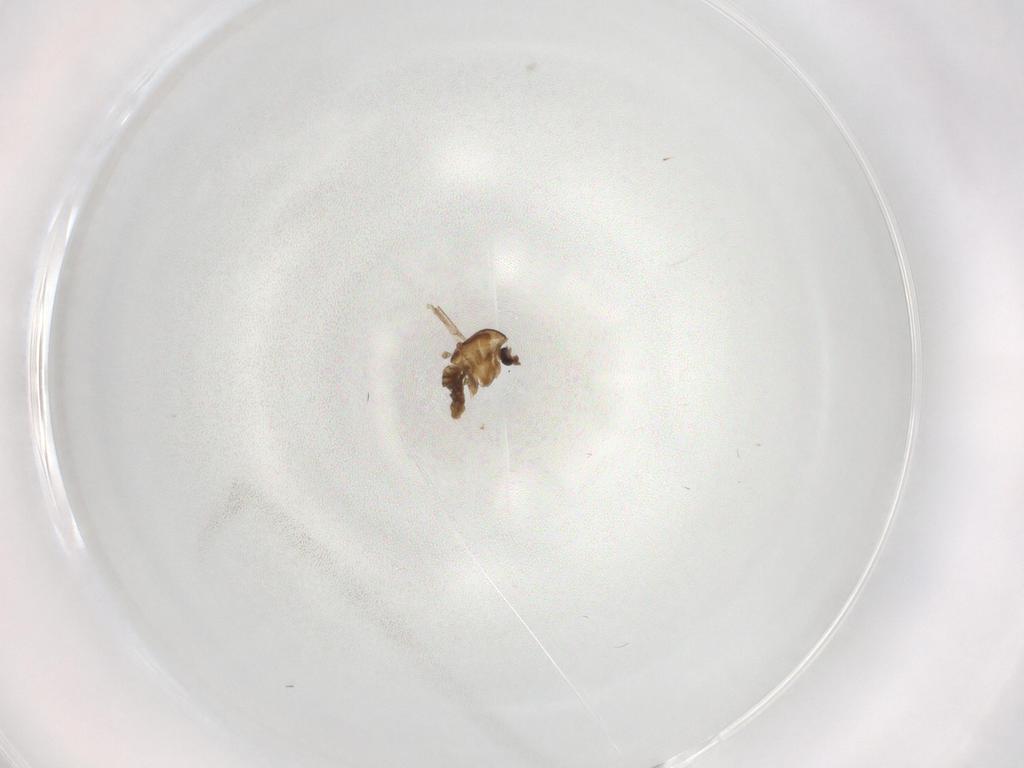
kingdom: Animalia
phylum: Arthropoda
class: Insecta
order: Diptera
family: Chironomidae
